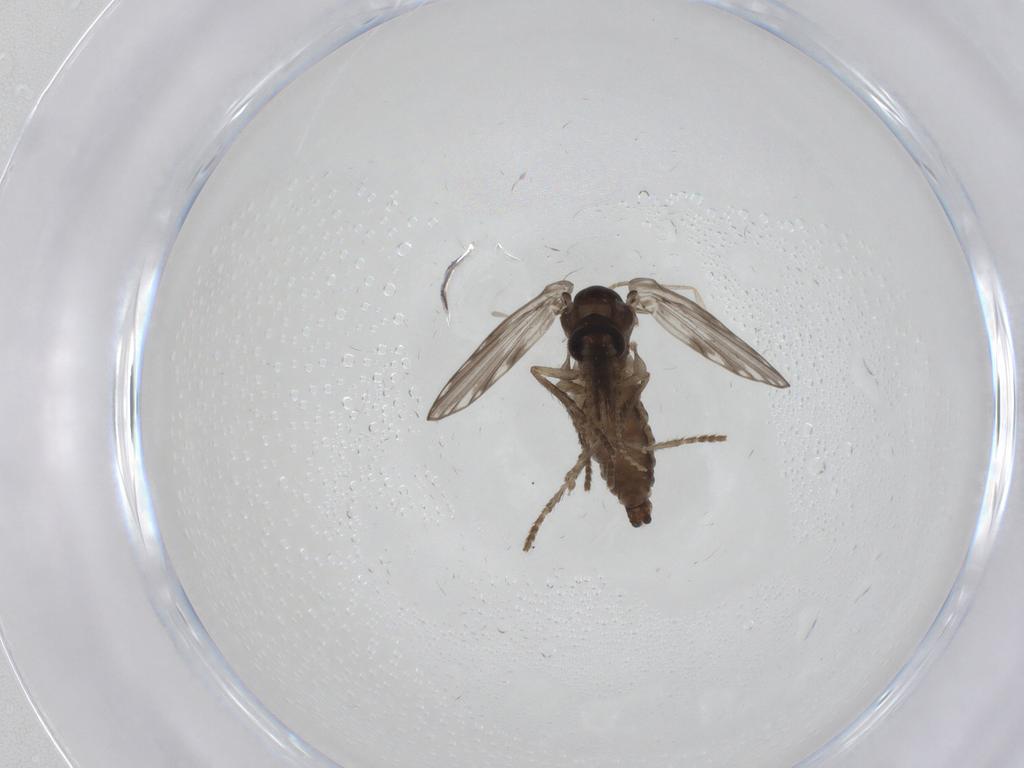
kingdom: Animalia
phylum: Arthropoda
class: Insecta
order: Diptera
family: Psychodidae
